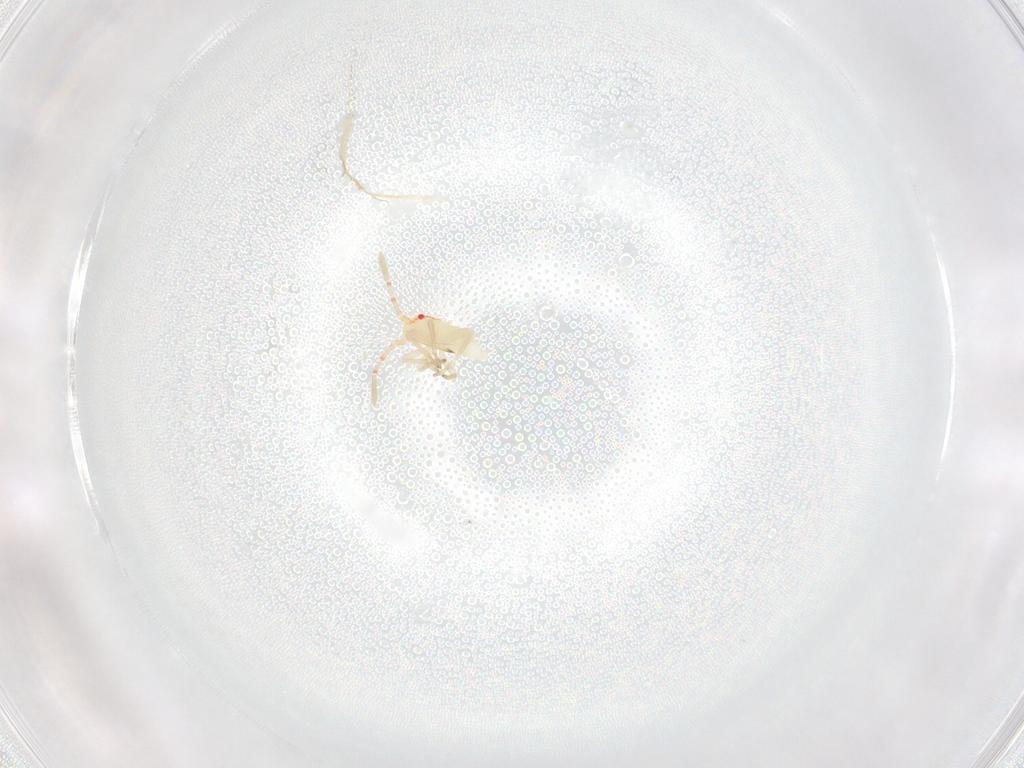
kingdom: Animalia
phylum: Arthropoda
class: Insecta
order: Hemiptera
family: Miridae
